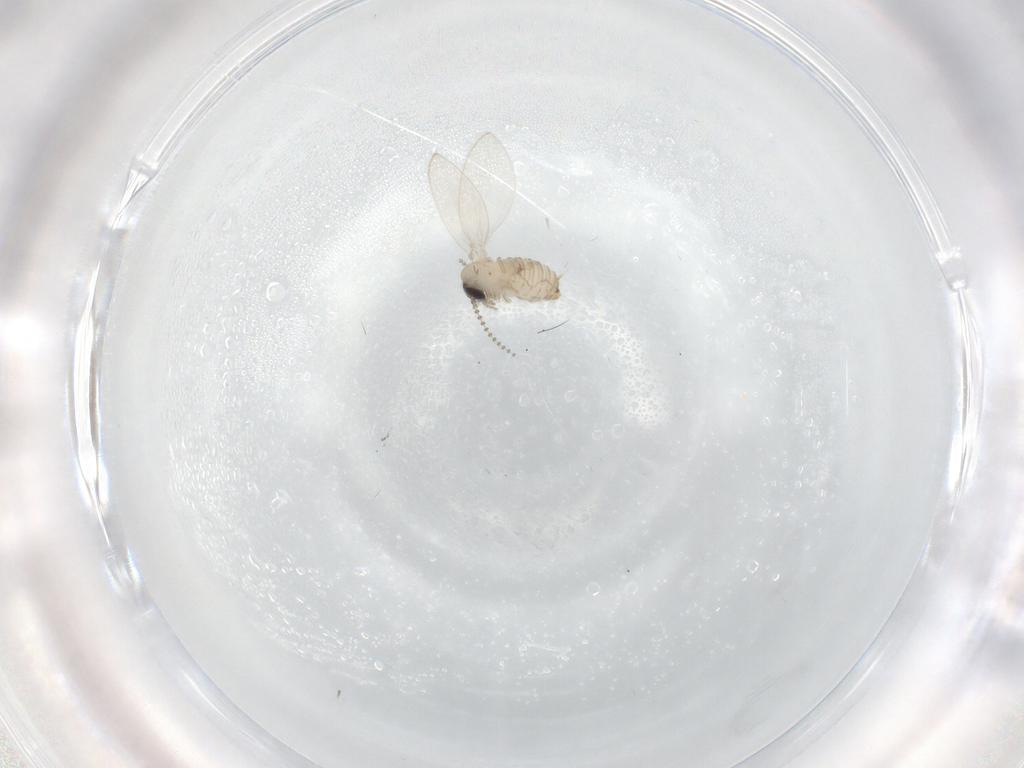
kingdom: Animalia
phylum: Arthropoda
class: Insecta
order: Diptera
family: Psychodidae
